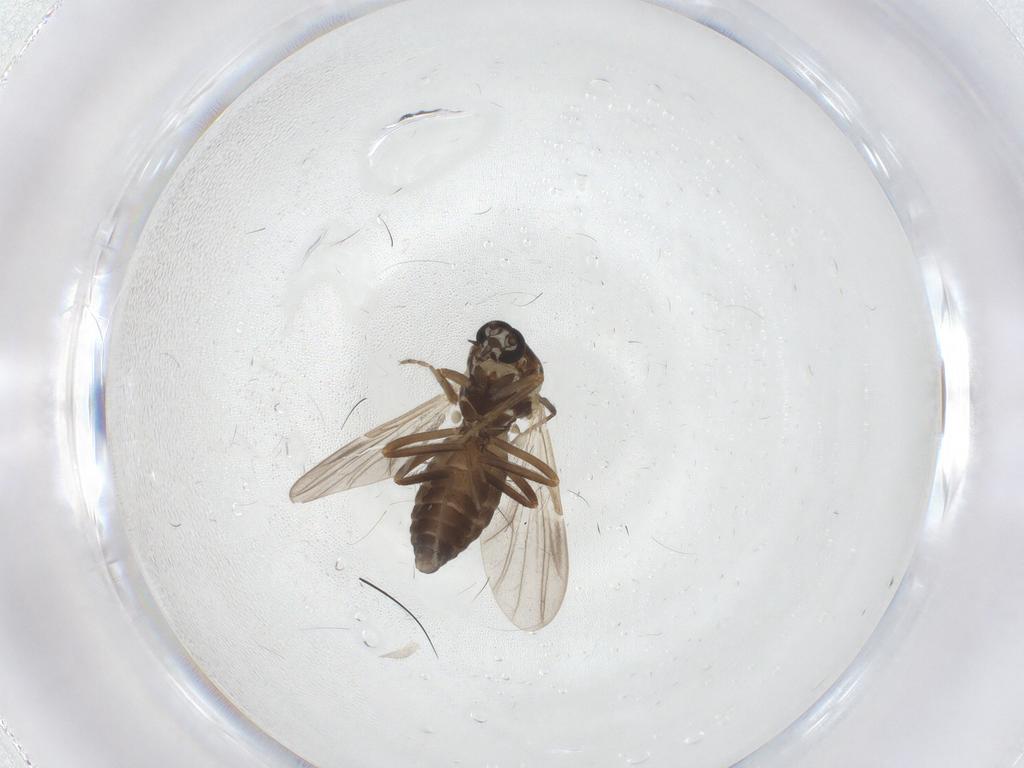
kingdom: Animalia
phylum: Arthropoda
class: Insecta
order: Diptera
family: Ceratopogonidae
